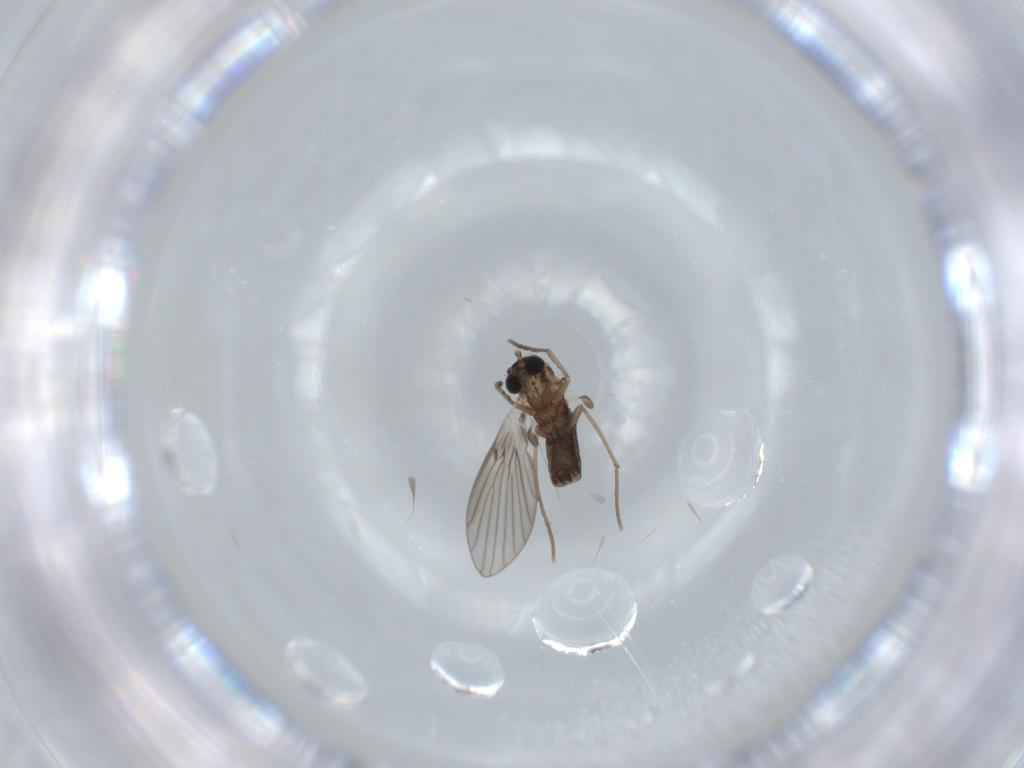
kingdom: Animalia
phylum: Arthropoda
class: Insecta
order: Diptera
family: Psychodidae
